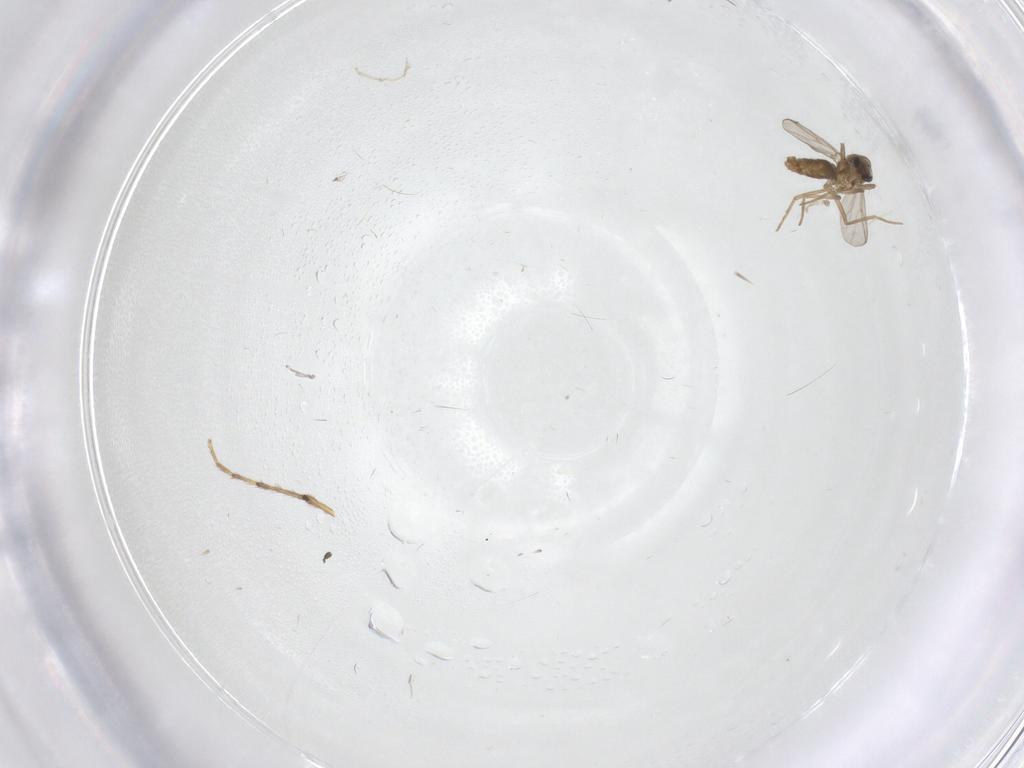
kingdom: Animalia
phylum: Arthropoda
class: Insecta
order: Diptera
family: Chironomidae
